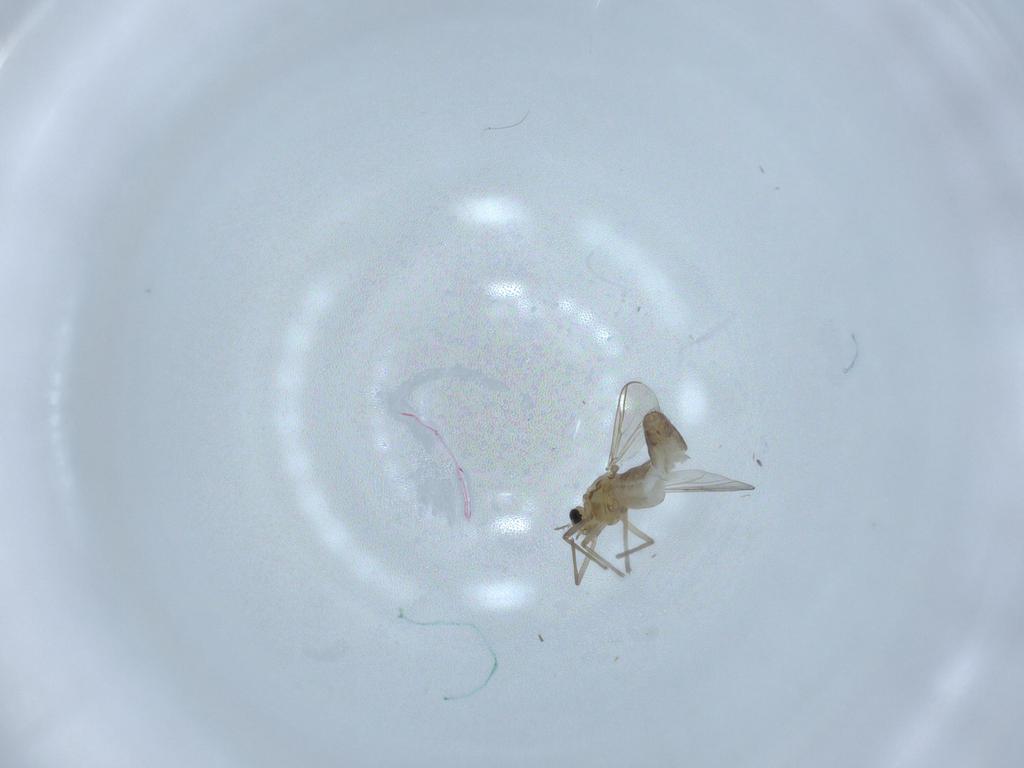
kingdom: Animalia
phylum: Arthropoda
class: Insecta
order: Diptera
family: Chironomidae
